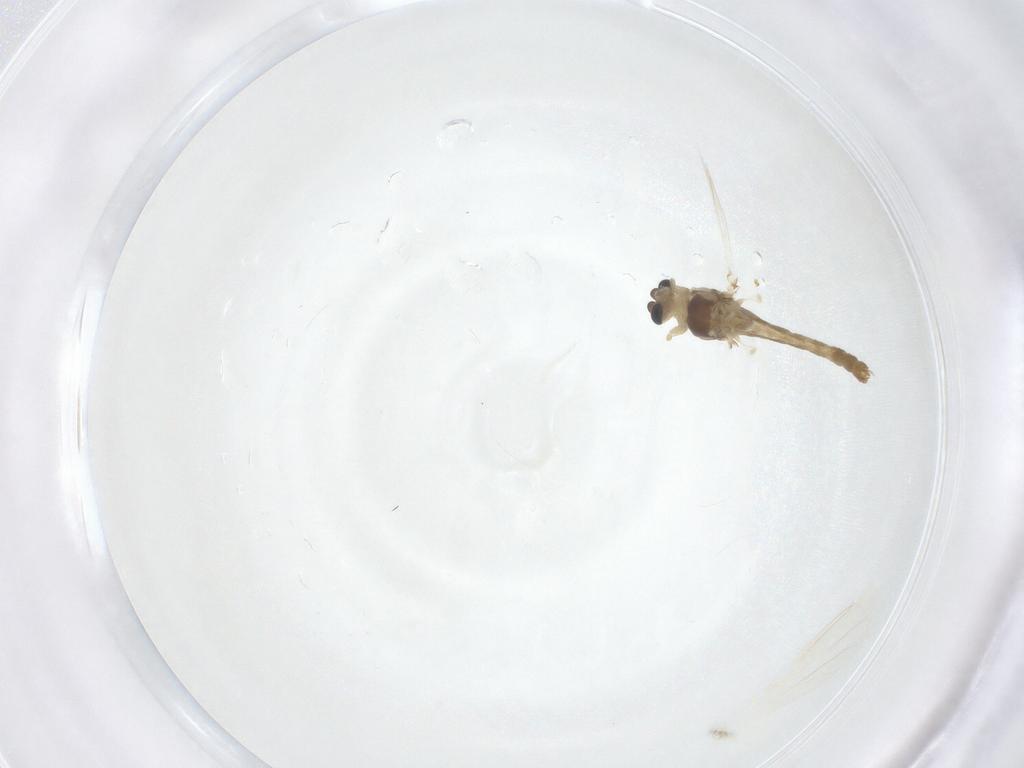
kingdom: Animalia
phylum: Arthropoda
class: Insecta
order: Diptera
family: Chironomidae
